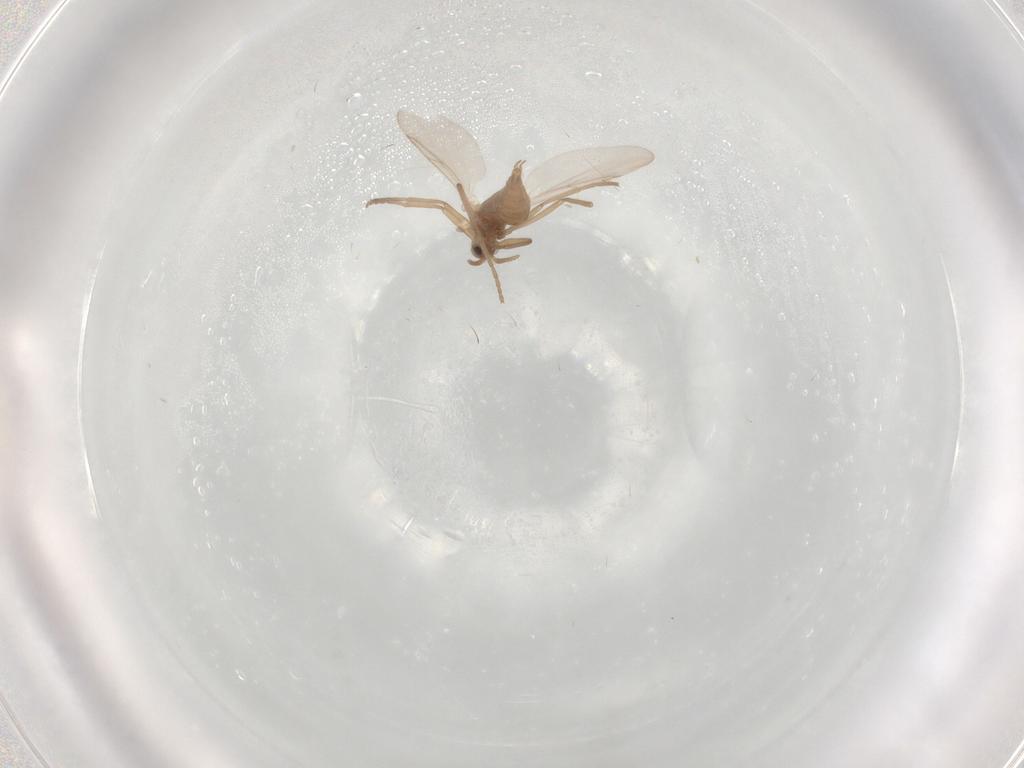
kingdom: Animalia
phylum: Arthropoda
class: Insecta
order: Diptera
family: Cecidomyiidae
